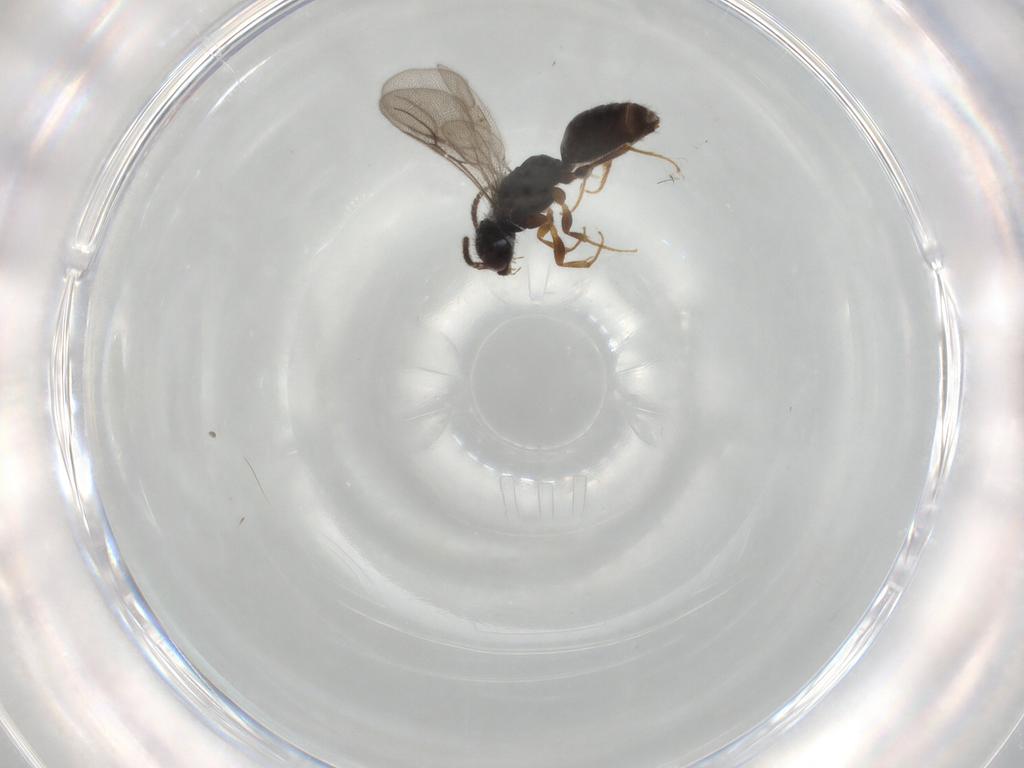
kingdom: Animalia
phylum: Arthropoda
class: Insecta
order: Hymenoptera
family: Bethylidae
